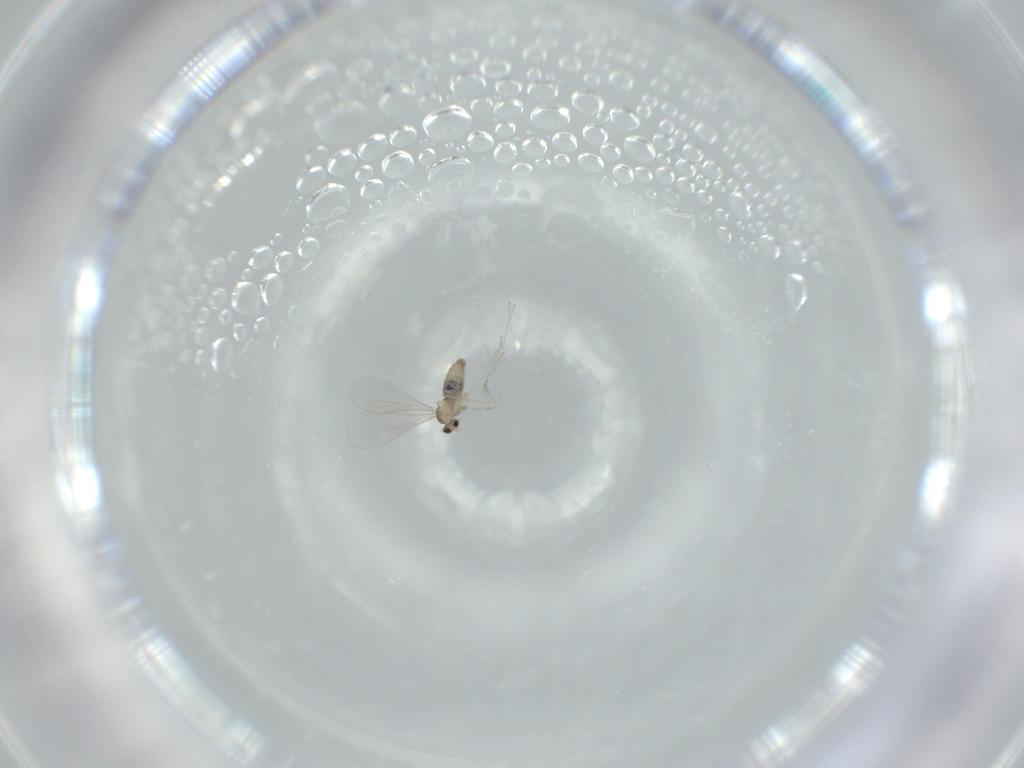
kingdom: Animalia
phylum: Arthropoda
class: Insecta
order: Diptera
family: Cecidomyiidae
